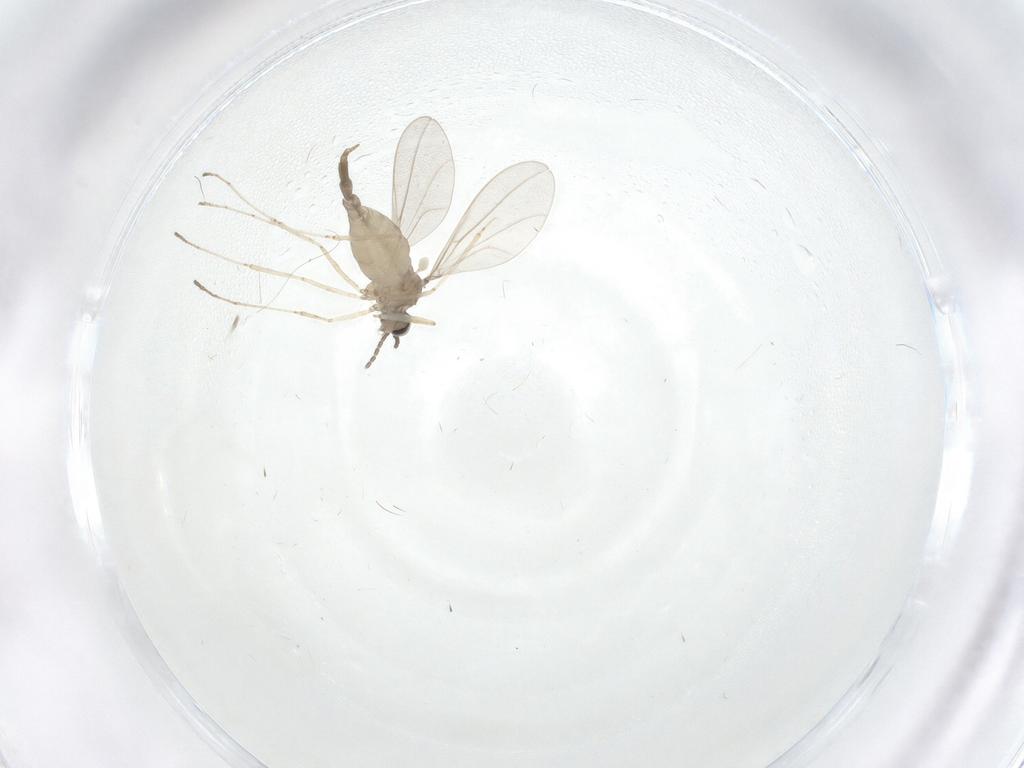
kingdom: Animalia
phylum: Arthropoda
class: Insecta
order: Diptera
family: Cecidomyiidae
